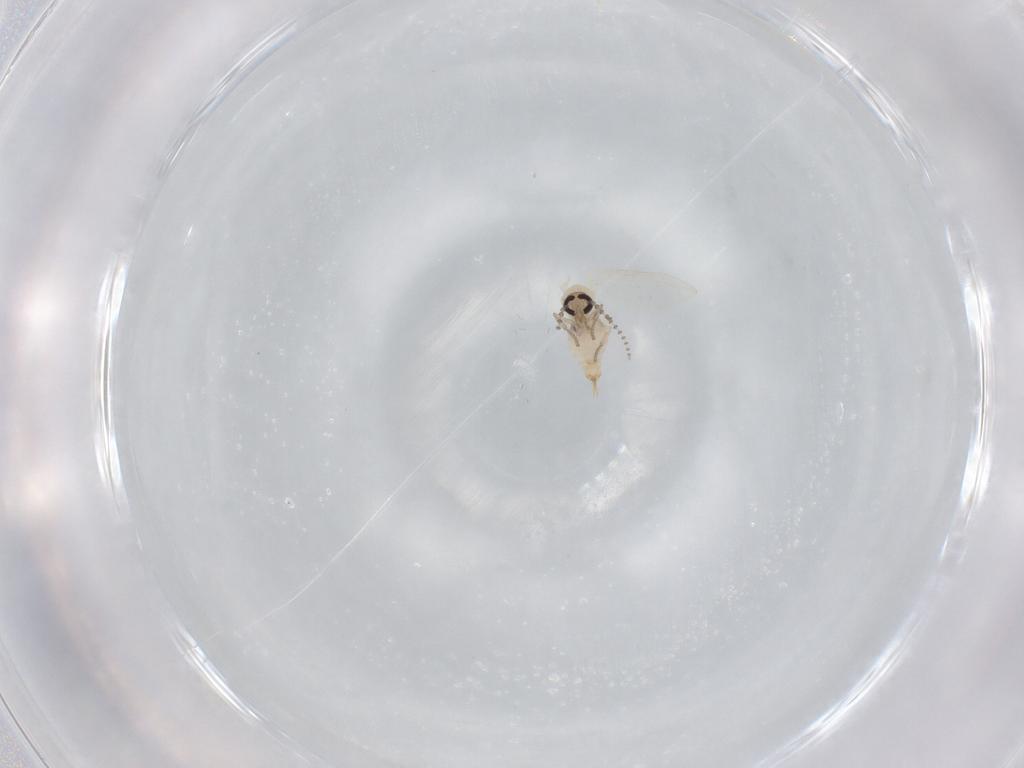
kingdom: Animalia
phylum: Arthropoda
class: Insecta
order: Diptera
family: Psychodidae
